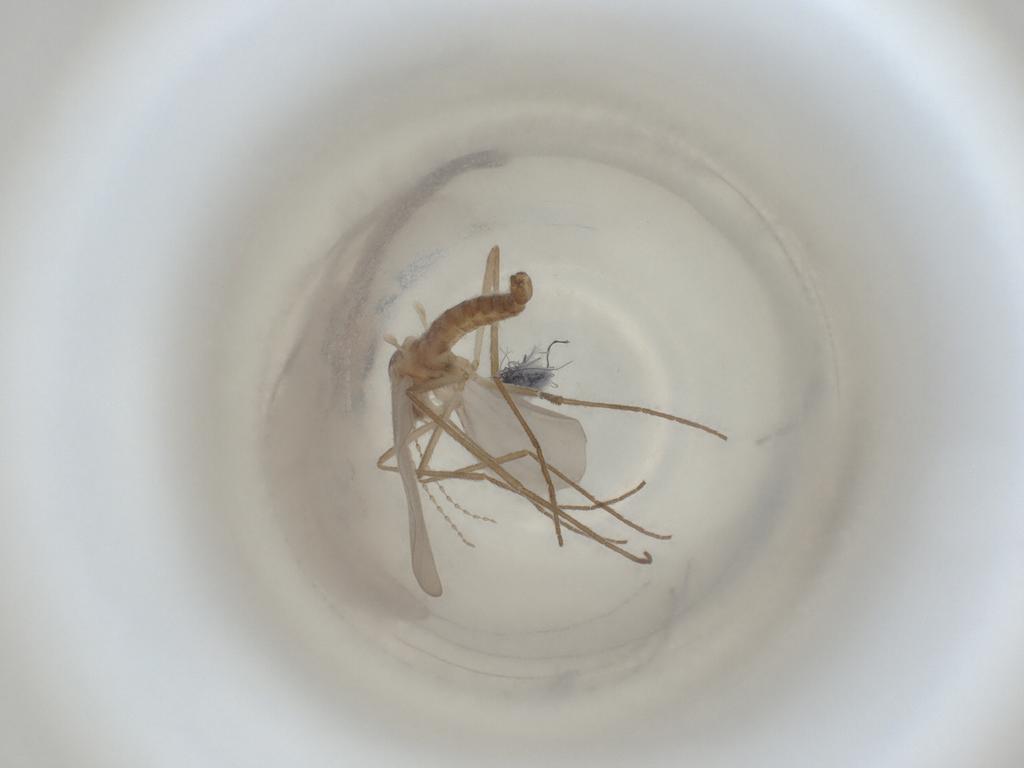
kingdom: Animalia
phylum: Arthropoda
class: Insecta
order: Diptera
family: Cecidomyiidae
